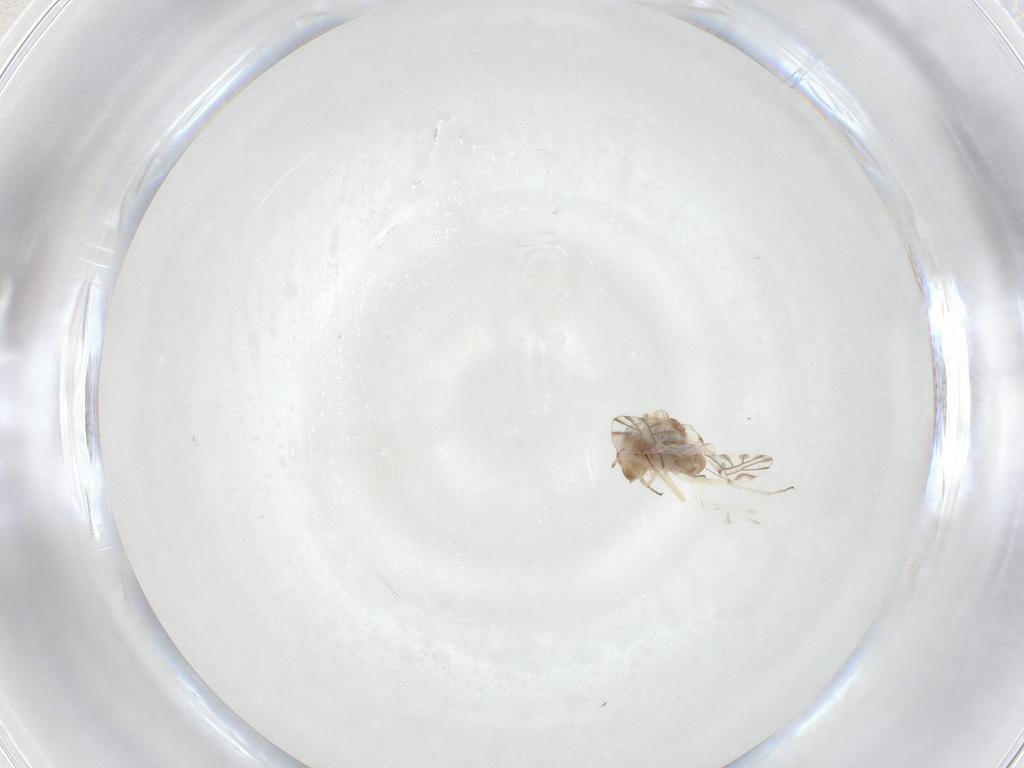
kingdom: Animalia
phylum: Arthropoda
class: Insecta
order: Psocodea
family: Lachesillidae
